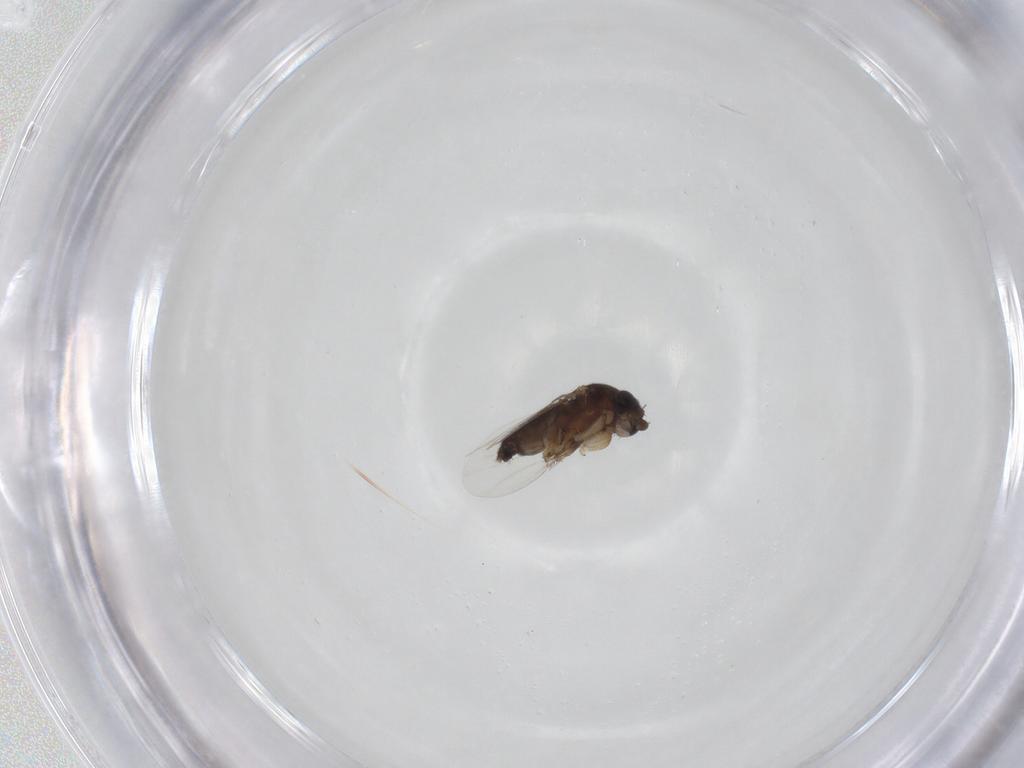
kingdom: Animalia
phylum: Arthropoda
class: Insecta
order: Diptera
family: Phoridae
